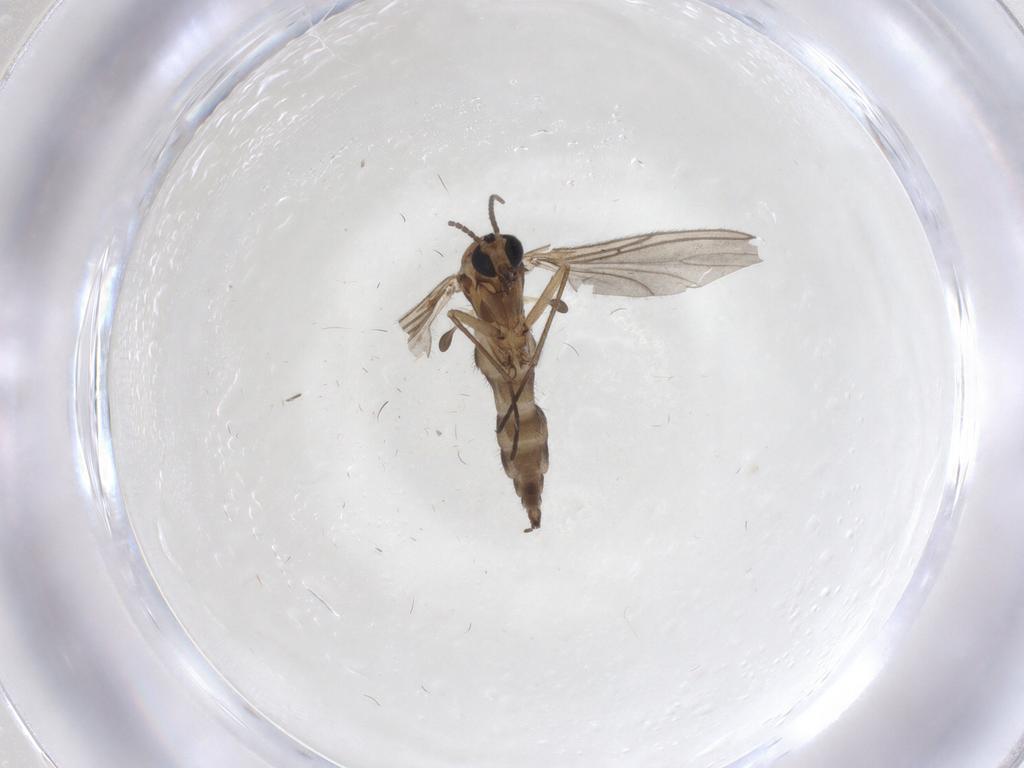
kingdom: Animalia
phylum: Arthropoda
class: Insecta
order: Diptera
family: Sciaridae
